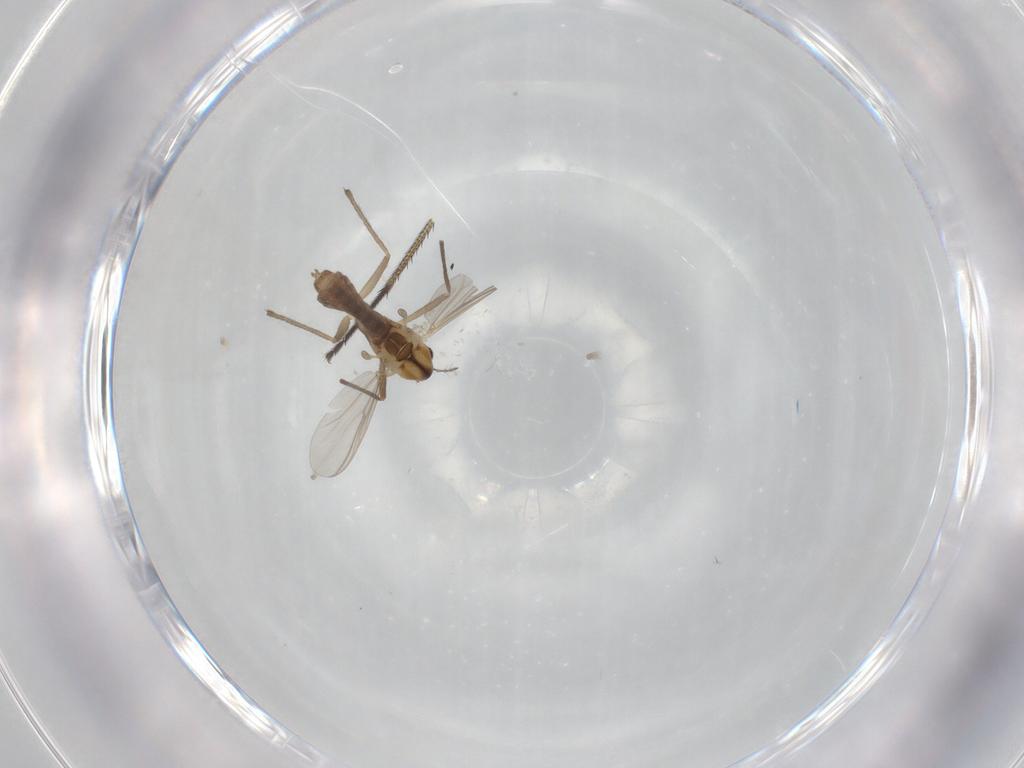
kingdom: Animalia
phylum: Arthropoda
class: Insecta
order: Diptera
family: Chironomidae
